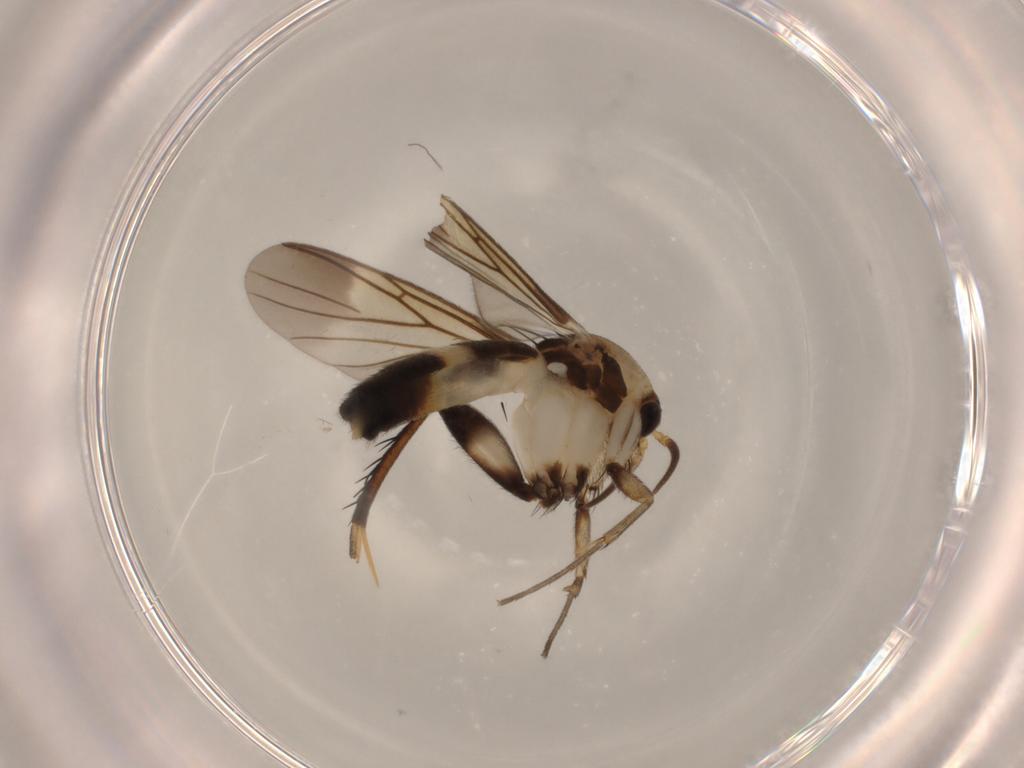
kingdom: Animalia
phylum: Arthropoda
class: Insecta
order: Diptera
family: Mycetophilidae
